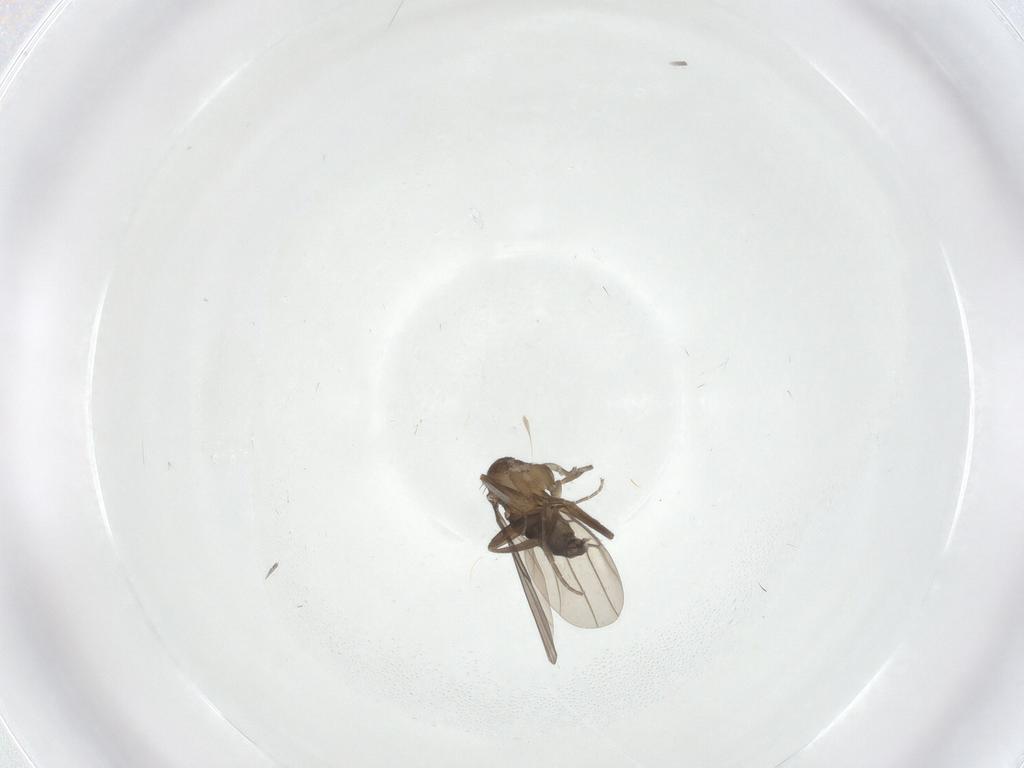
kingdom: Animalia
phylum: Arthropoda
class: Insecta
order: Diptera
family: Phoridae
